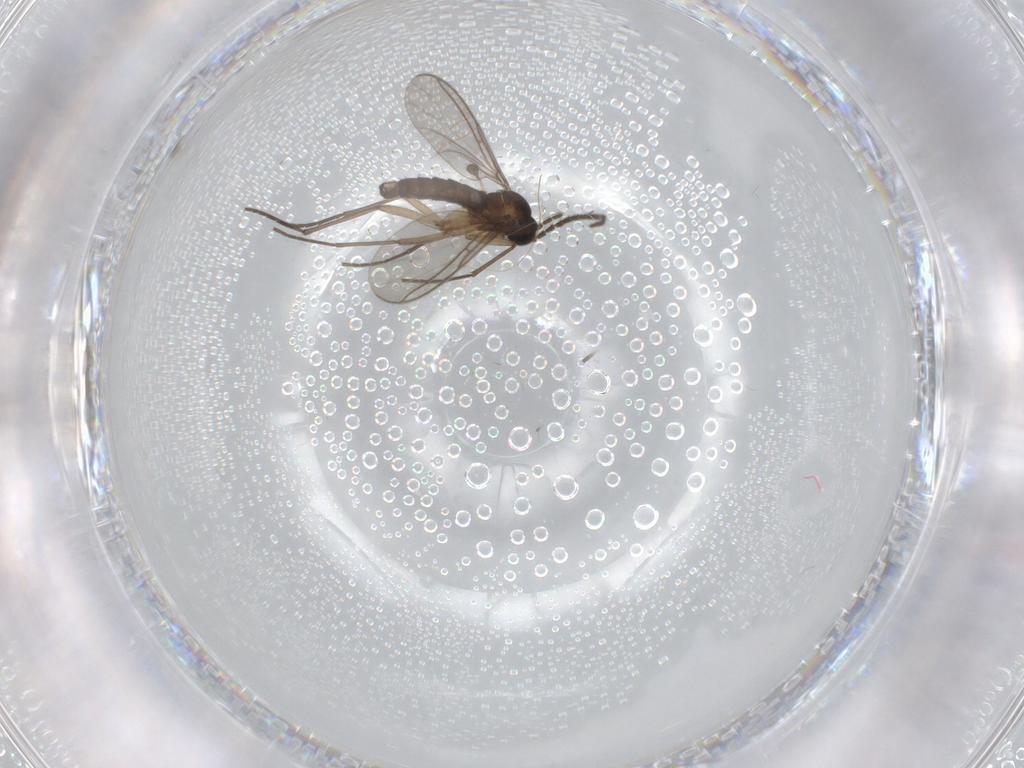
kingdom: Animalia
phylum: Arthropoda
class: Insecta
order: Diptera
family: Sciaridae
